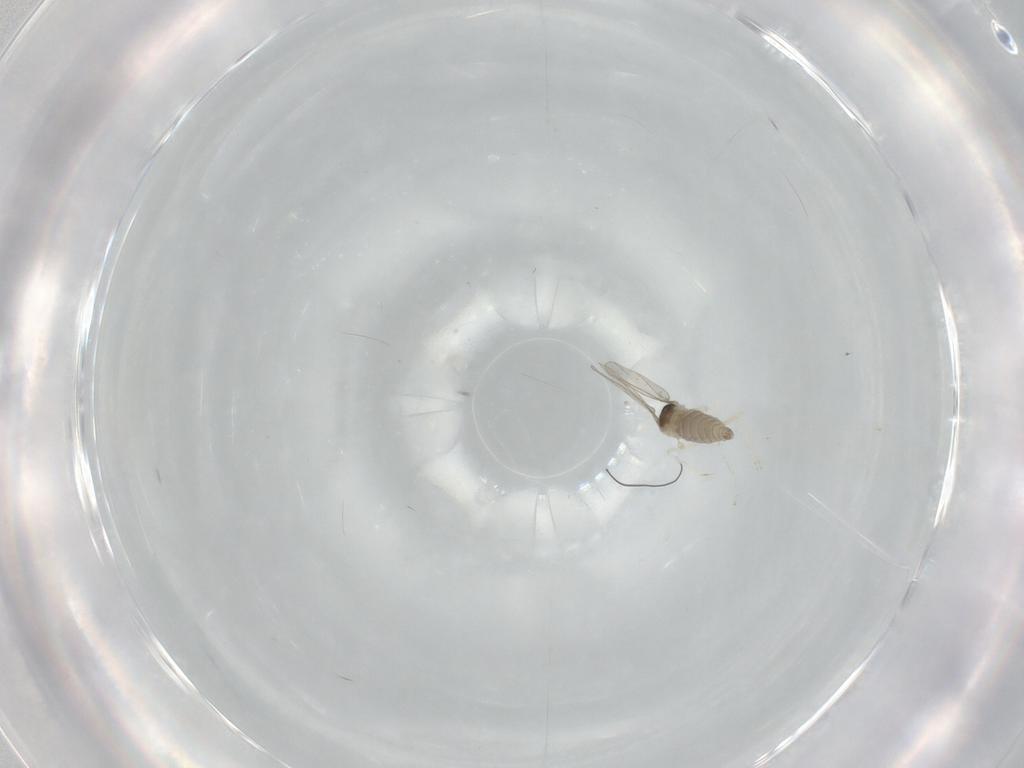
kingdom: Animalia
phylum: Arthropoda
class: Insecta
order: Diptera
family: Cecidomyiidae
